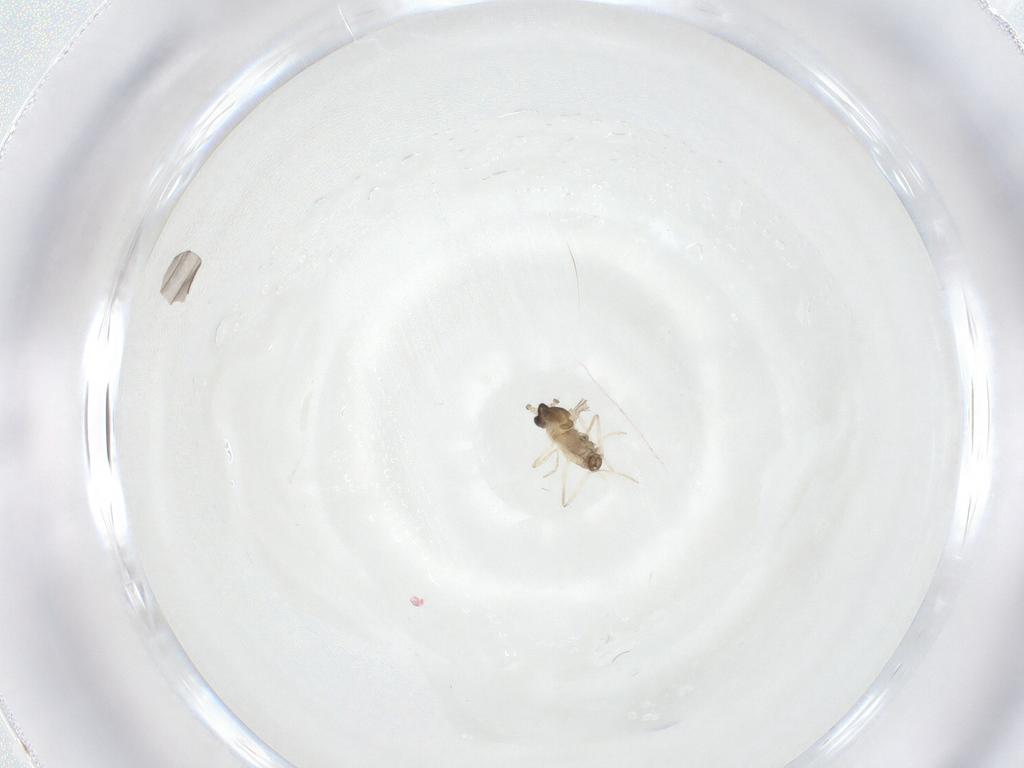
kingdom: Animalia
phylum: Arthropoda
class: Insecta
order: Diptera
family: Cecidomyiidae
